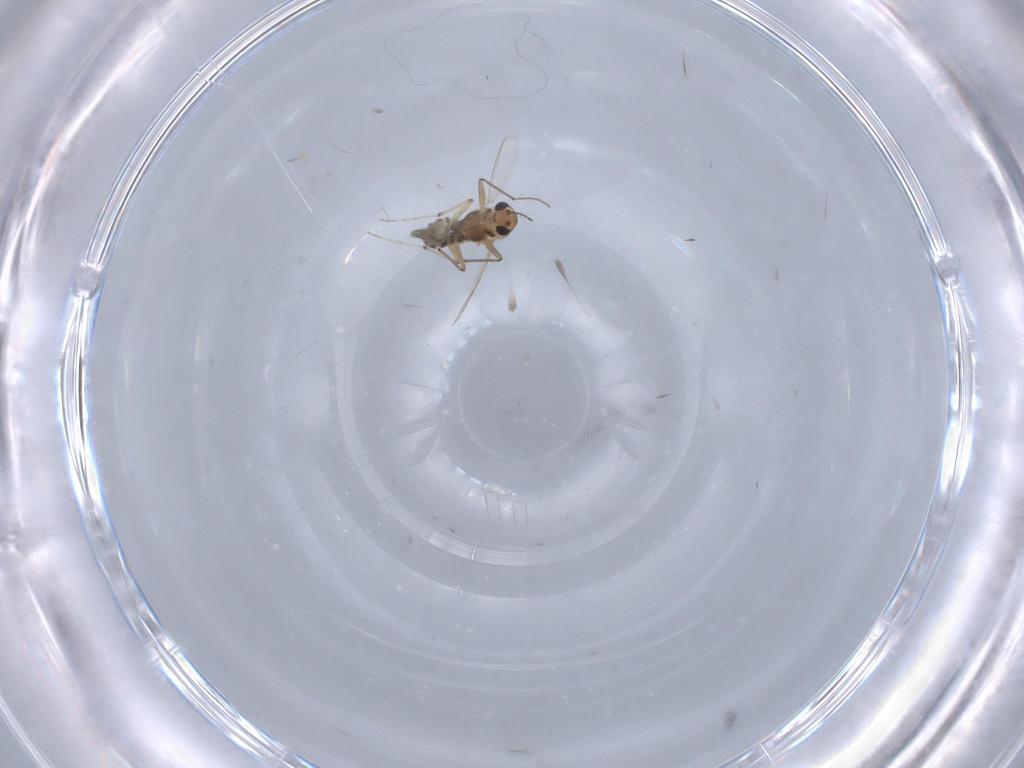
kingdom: Animalia
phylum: Arthropoda
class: Insecta
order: Diptera
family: Chironomidae
